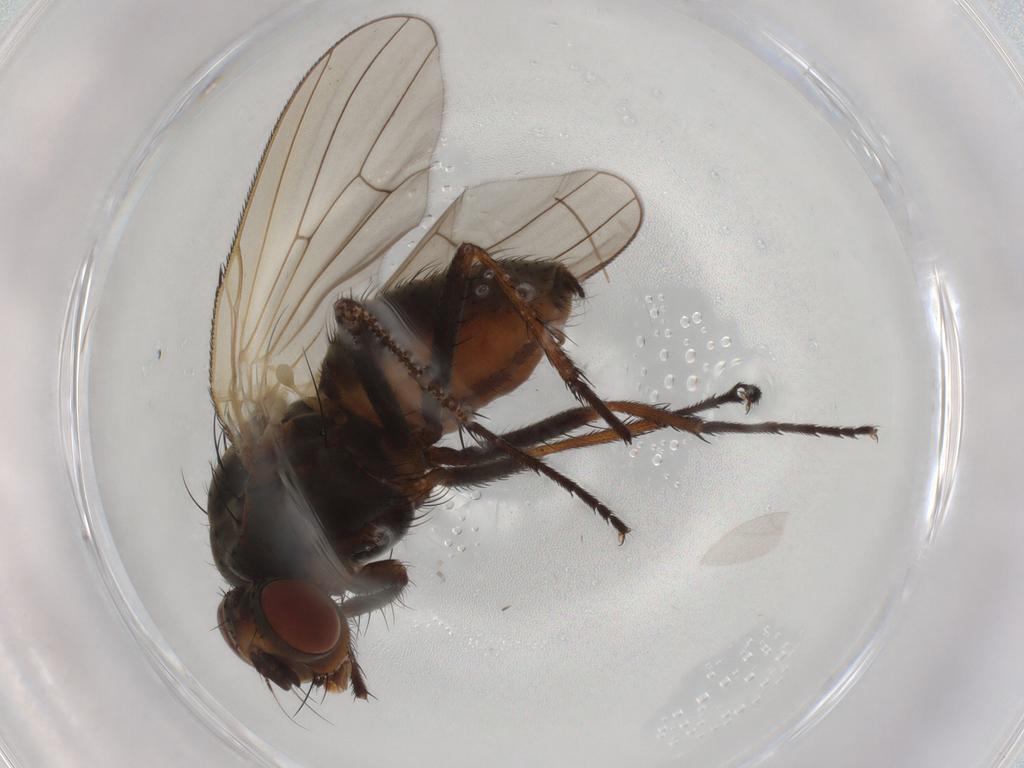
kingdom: Animalia
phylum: Arthropoda
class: Insecta
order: Diptera
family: Anthomyiidae
